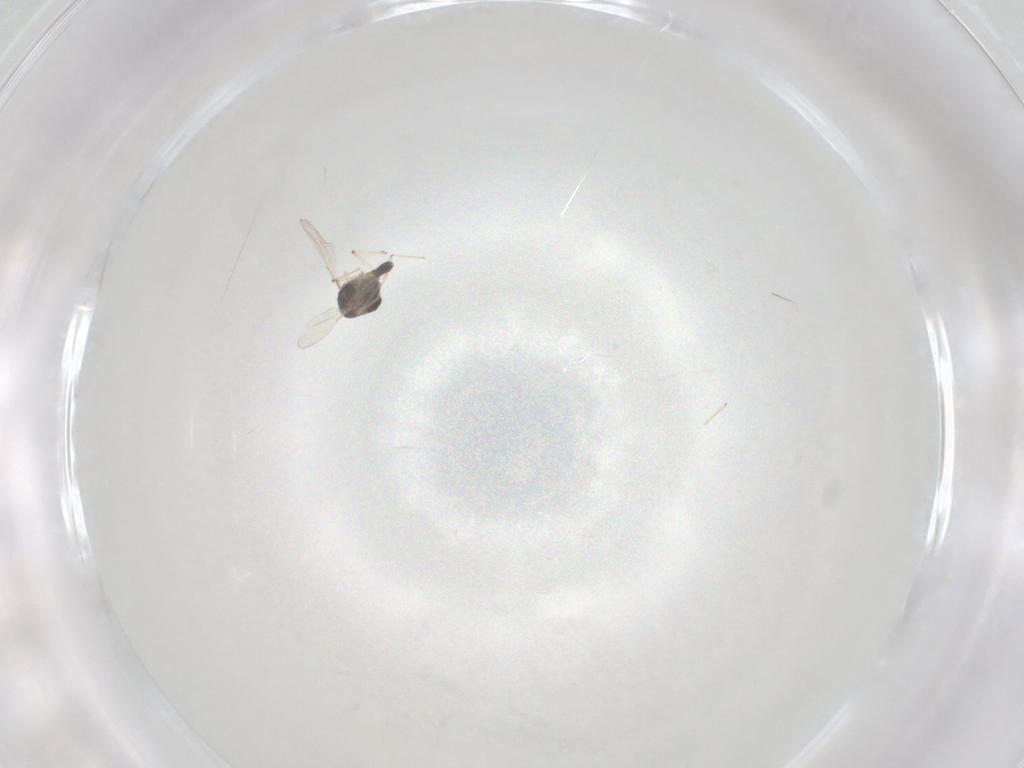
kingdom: Animalia
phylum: Arthropoda
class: Insecta
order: Diptera
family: Chironomidae
